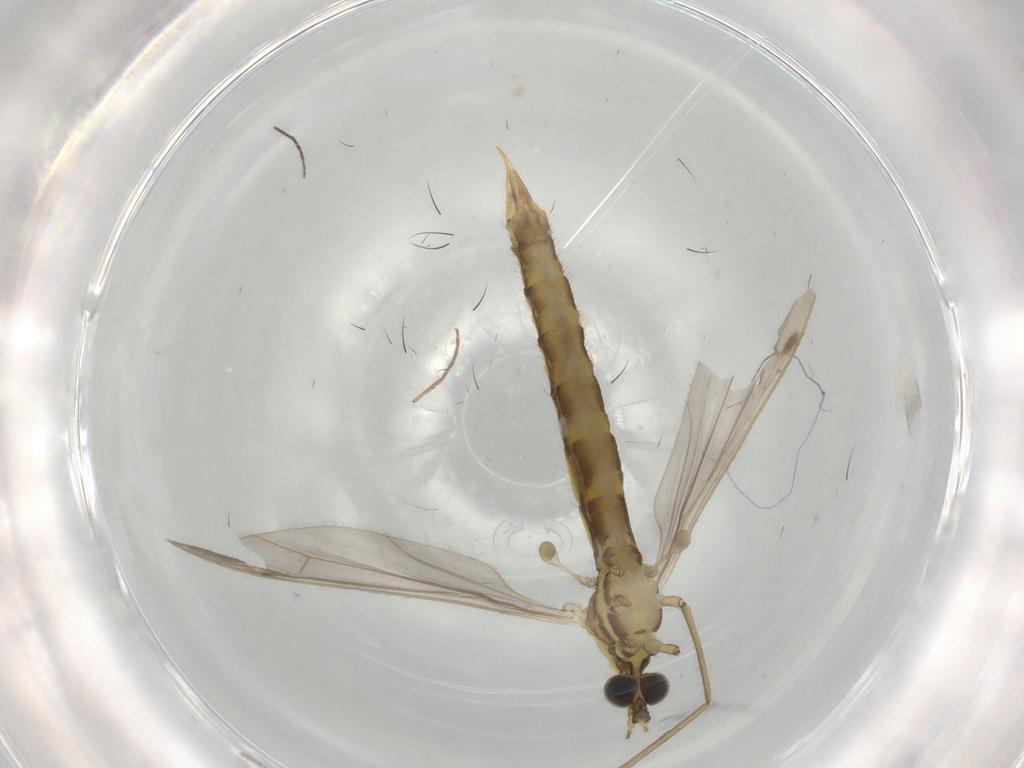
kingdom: Animalia
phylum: Arthropoda
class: Insecta
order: Diptera
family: Limoniidae
